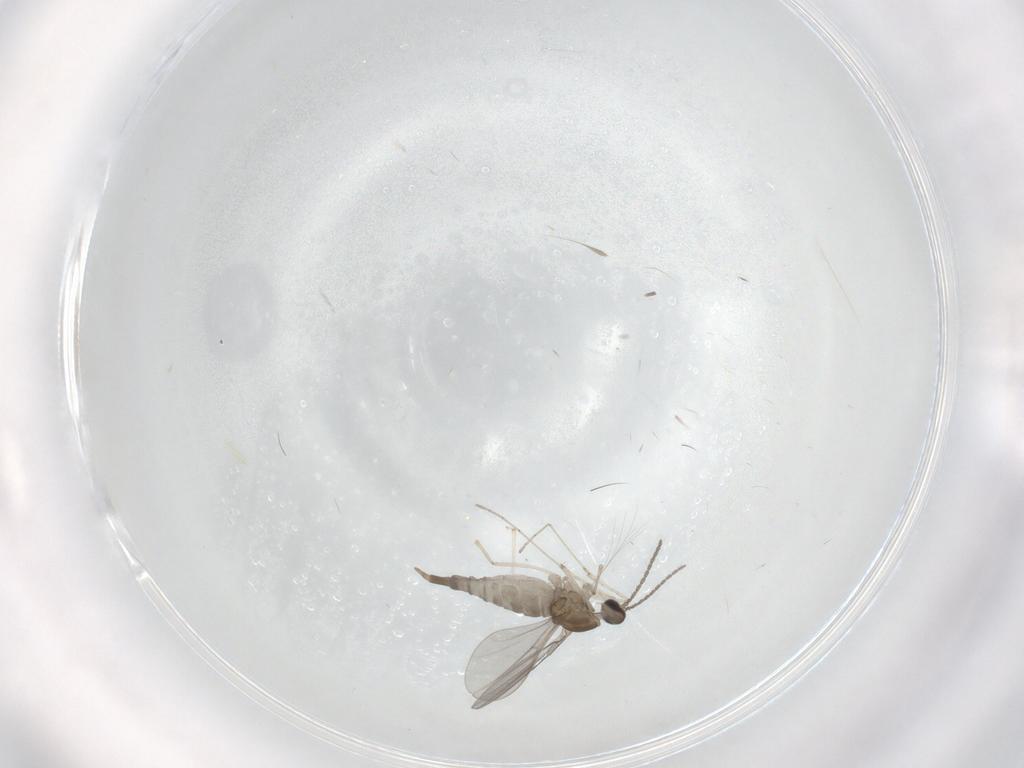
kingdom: Animalia
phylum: Arthropoda
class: Insecta
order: Diptera
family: Cecidomyiidae
